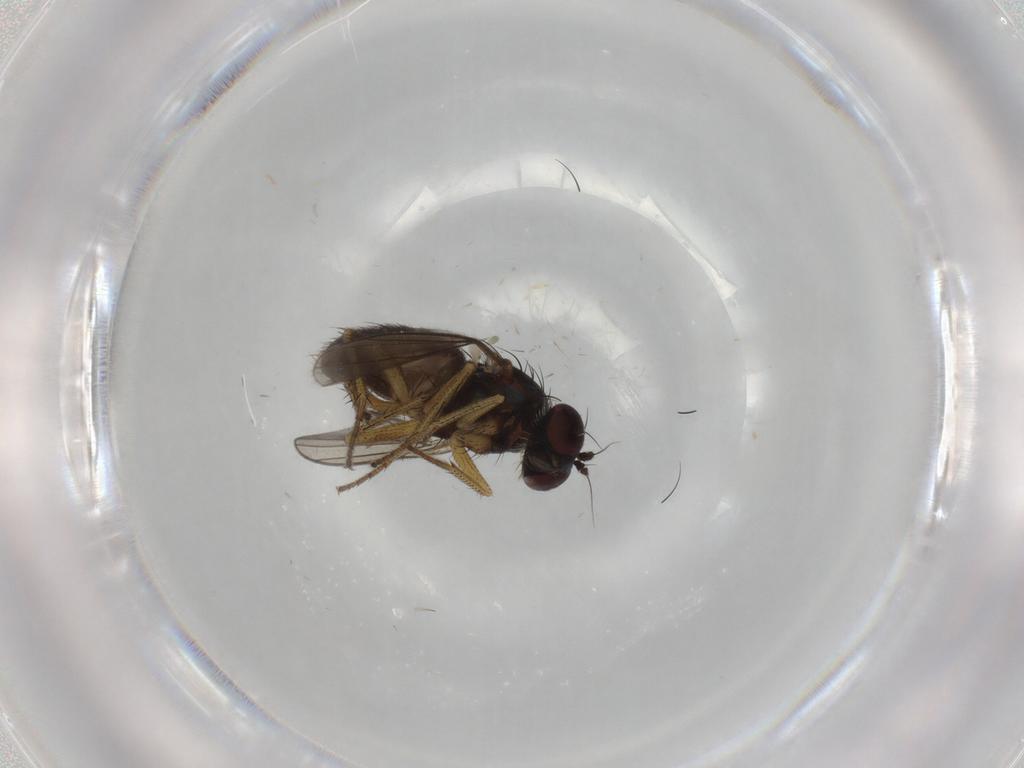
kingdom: Animalia
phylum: Arthropoda
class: Insecta
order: Diptera
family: Dolichopodidae
